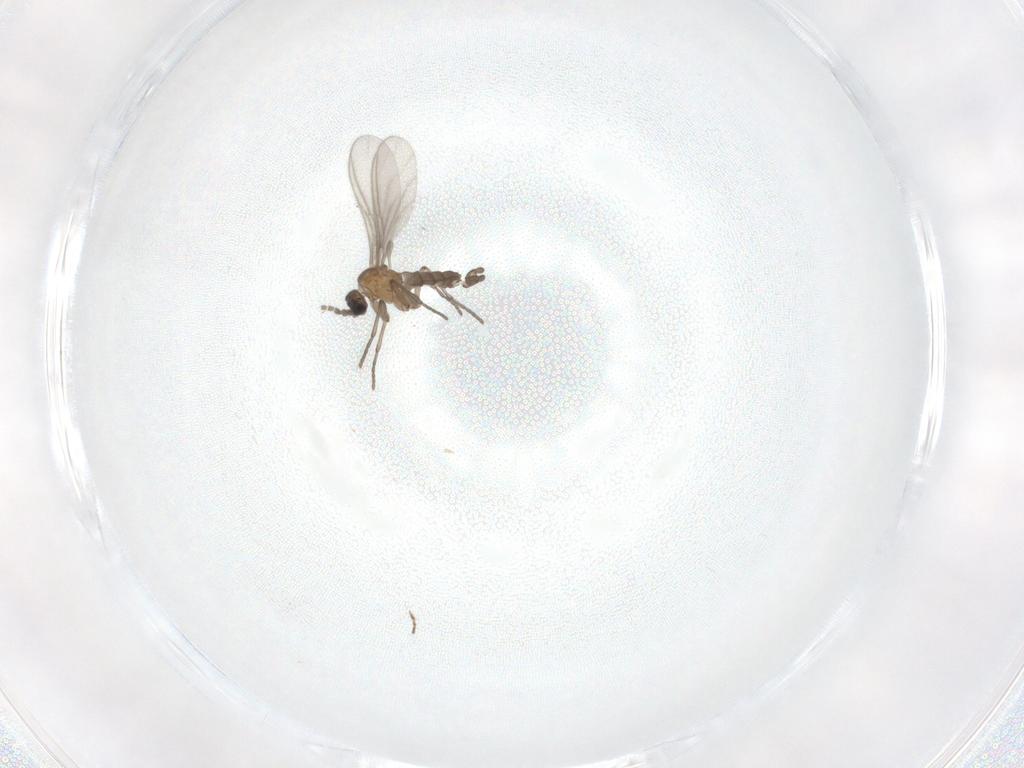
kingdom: Animalia
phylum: Arthropoda
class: Insecta
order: Diptera
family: Sciaridae
